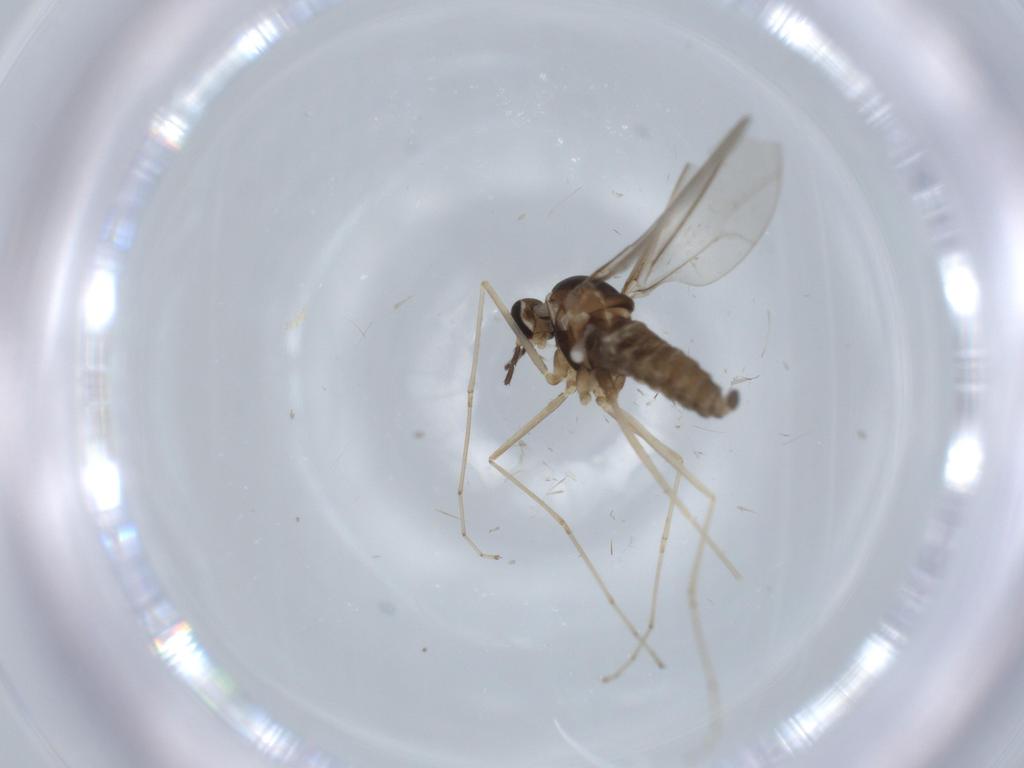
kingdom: Animalia
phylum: Arthropoda
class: Insecta
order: Diptera
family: Cecidomyiidae
